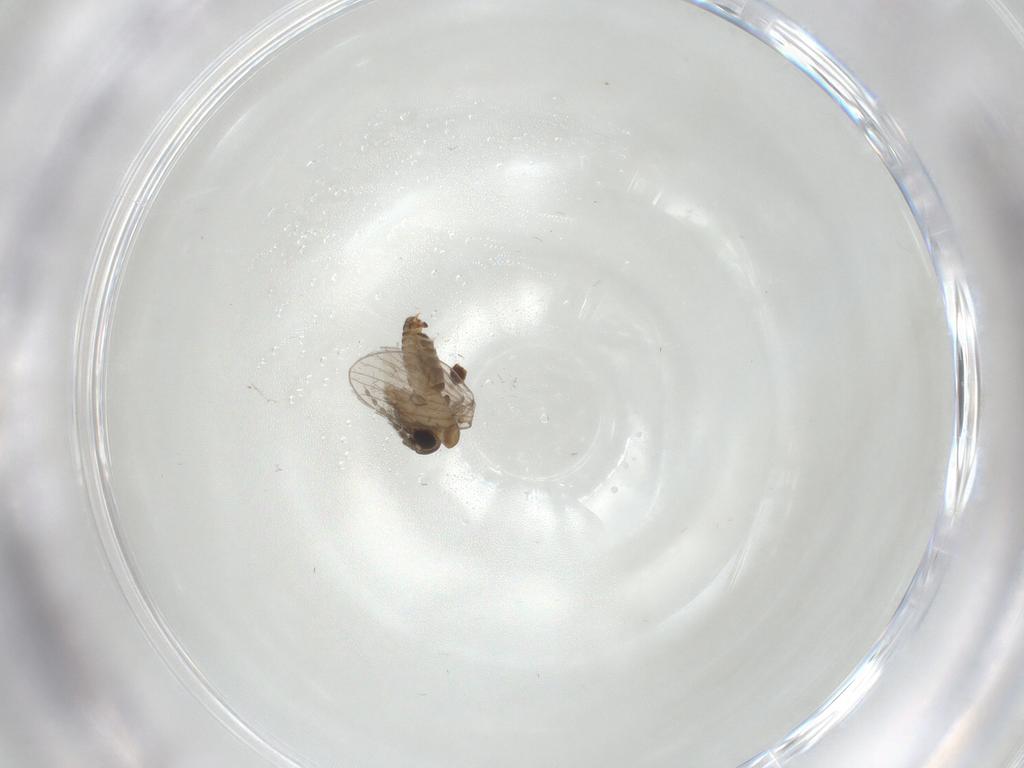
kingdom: Animalia
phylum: Arthropoda
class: Insecta
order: Diptera
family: Psychodidae
